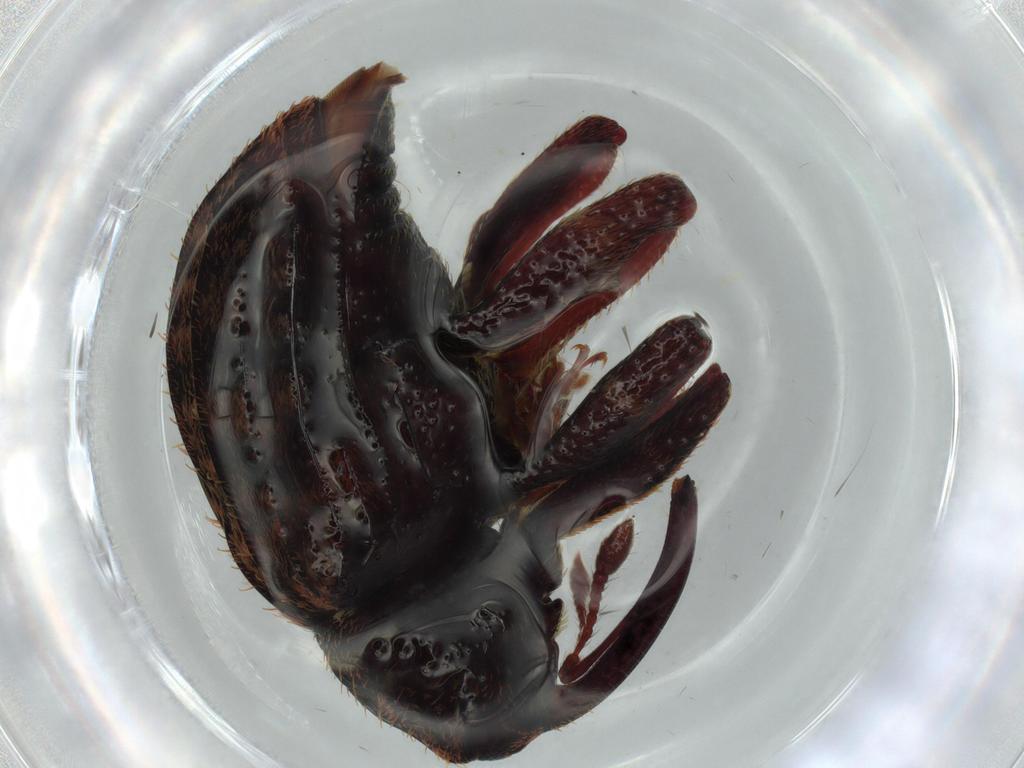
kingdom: Animalia
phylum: Arthropoda
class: Insecta
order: Coleoptera
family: Curculionidae
